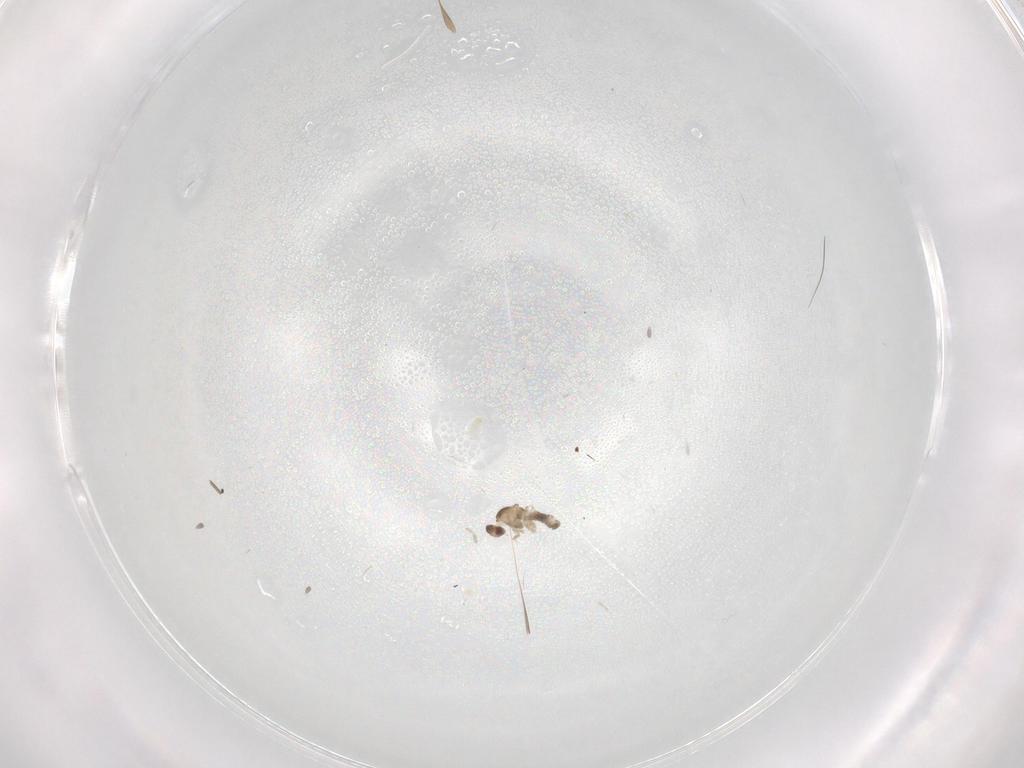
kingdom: Animalia
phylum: Arthropoda
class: Insecta
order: Diptera
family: Cecidomyiidae
